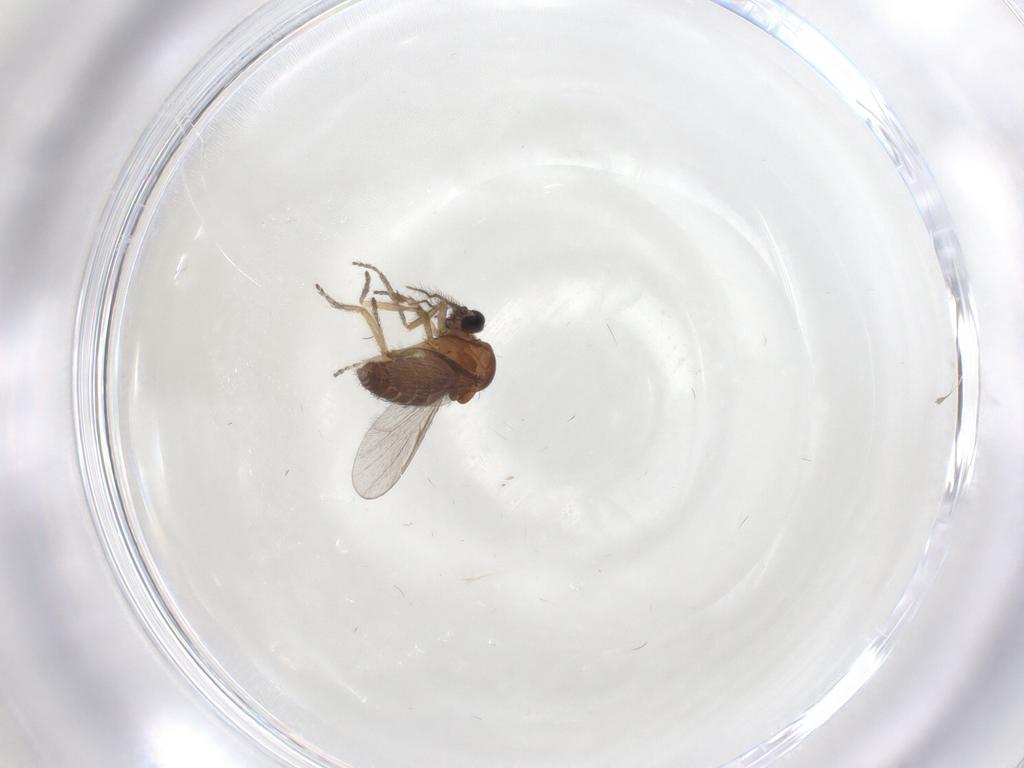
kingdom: Animalia
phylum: Arthropoda
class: Insecta
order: Diptera
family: Ceratopogonidae
